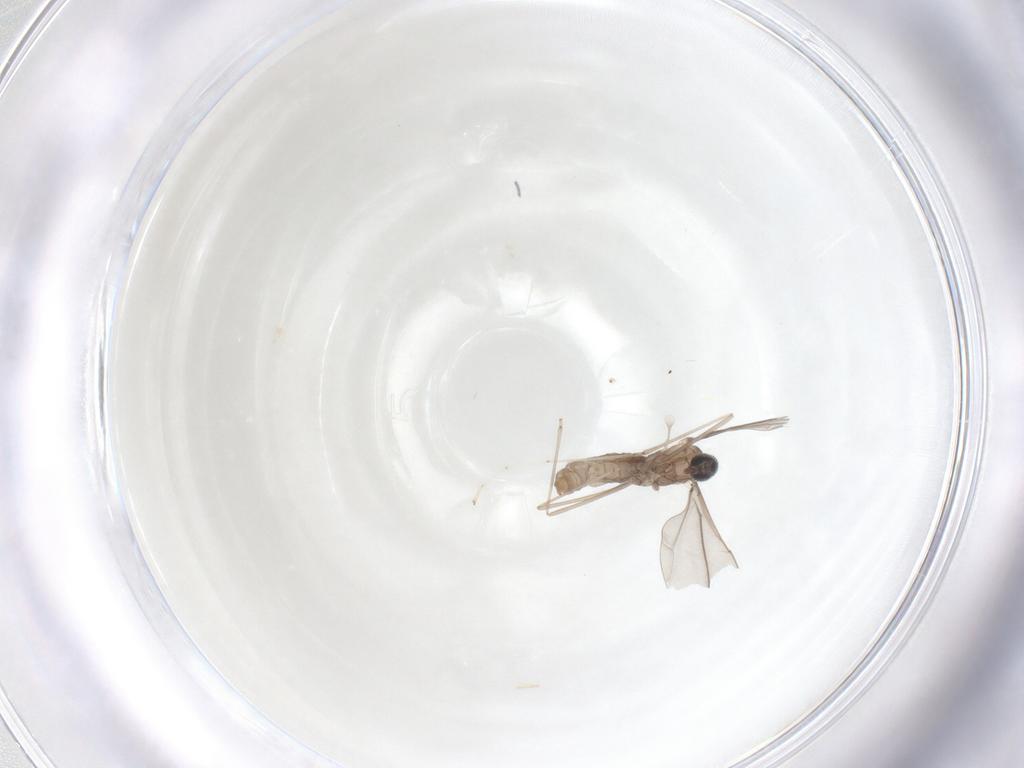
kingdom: Animalia
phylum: Arthropoda
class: Insecta
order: Diptera
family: Cecidomyiidae
